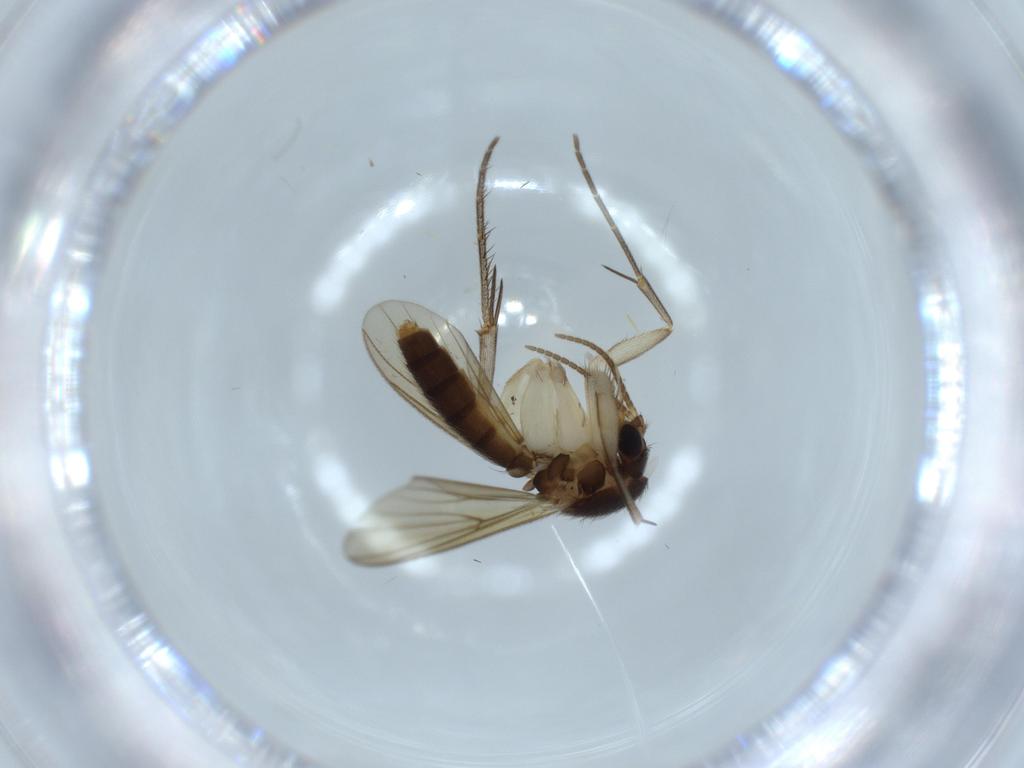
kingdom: Animalia
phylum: Arthropoda
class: Insecta
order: Diptera
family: Mycetophilidae
